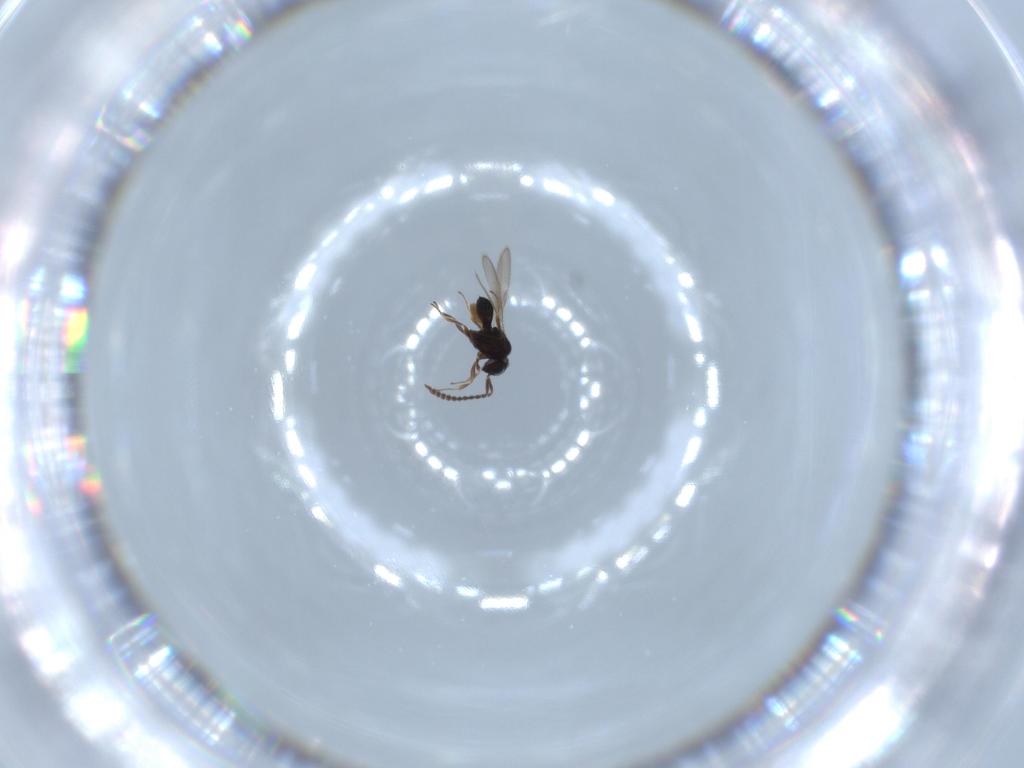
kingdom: Animalia
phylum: Arthropoda
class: Insecta
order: Hymenoptera
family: Scelionidae
